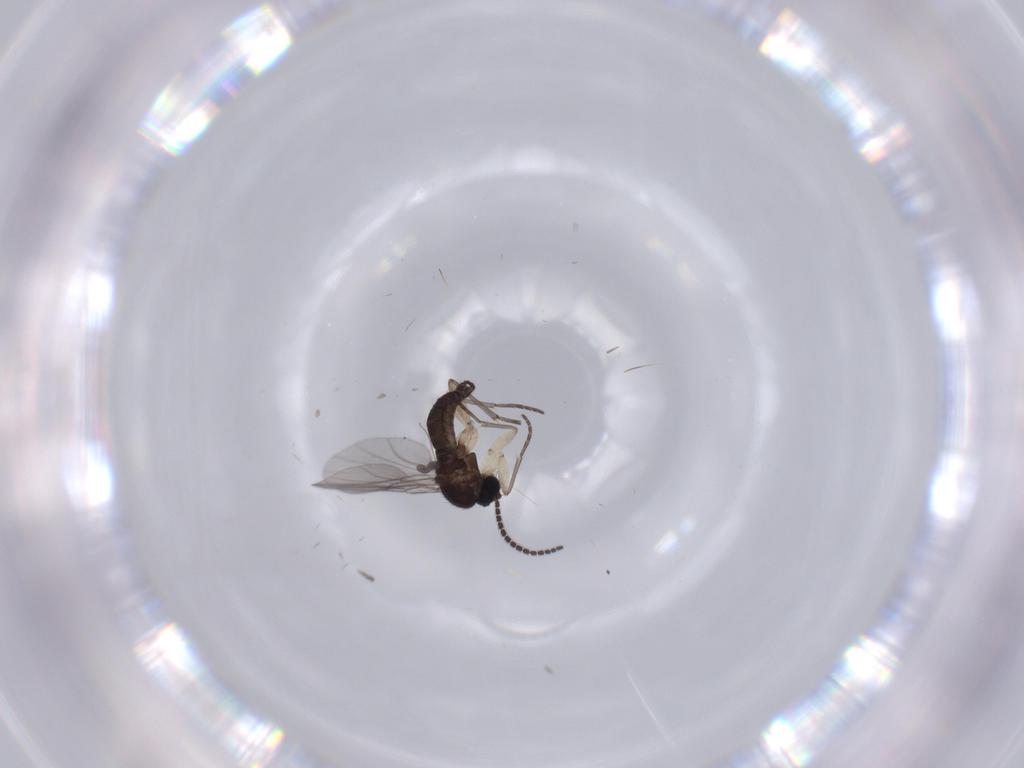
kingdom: Animalia
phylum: Arthropoda
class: Insecta
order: Diptera
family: Sciaridae
